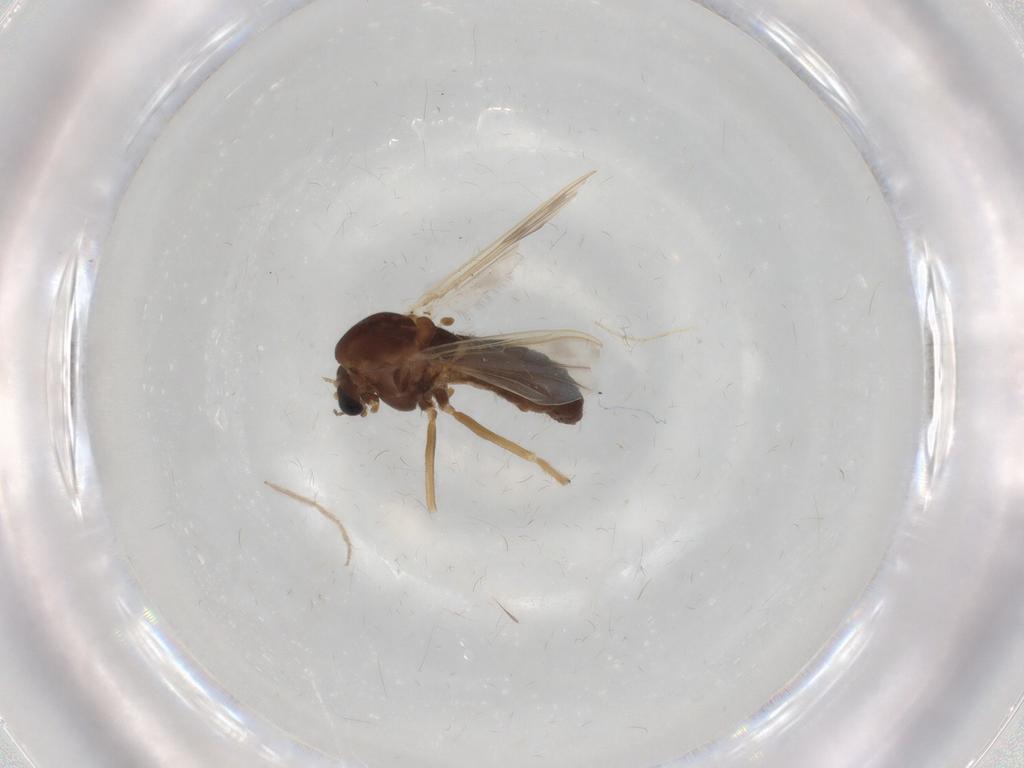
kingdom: Animalia
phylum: Arthropoda
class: Insecta
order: Diptera
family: Chironomidae
